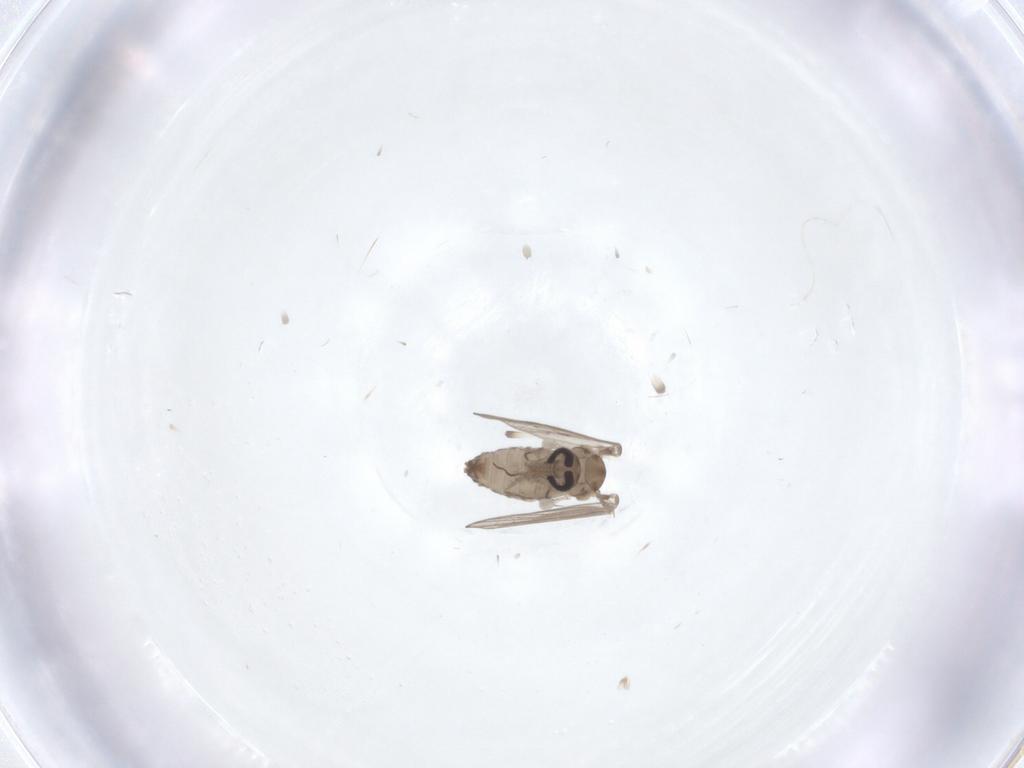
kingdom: Animalia
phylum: Arthropoda
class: Insecta
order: Diptera
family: Psychodidae
